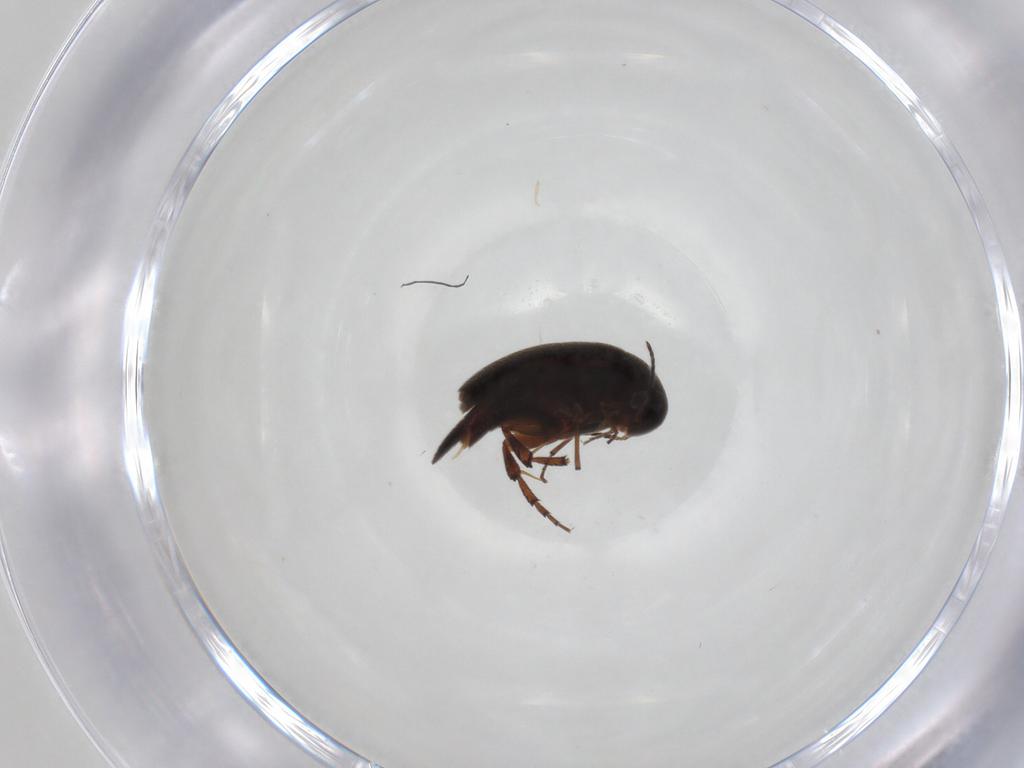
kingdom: Animalia
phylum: Arthropoda
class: Insecta
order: Coleoptera
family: Mordellidae
